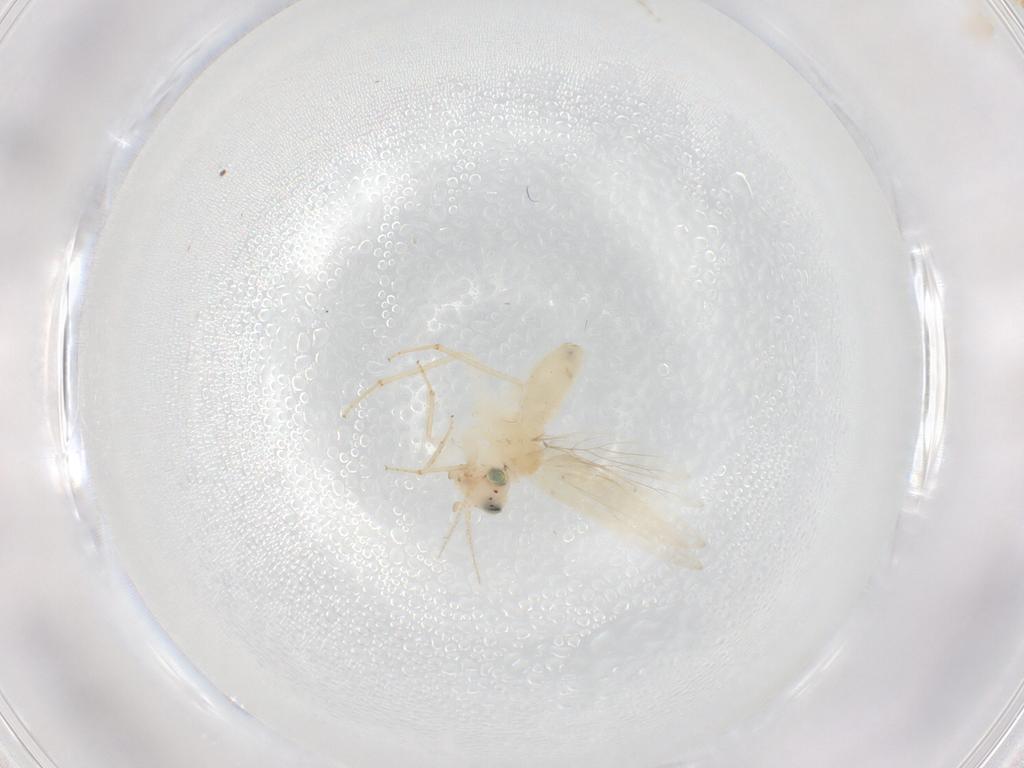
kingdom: Animalia
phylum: Arthropoda
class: Insecta
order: Psocodea
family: Lepidopsocidae
